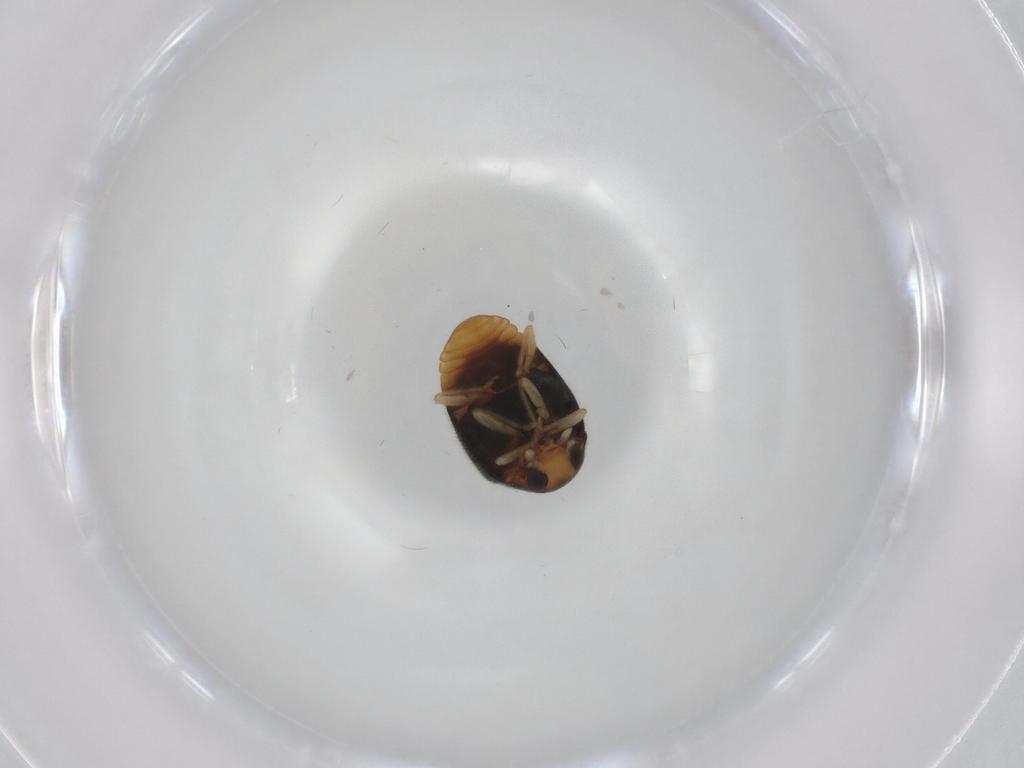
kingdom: Animalia
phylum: Arthropoda
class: Insecta
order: Coleoptera
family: Coccinellidae
